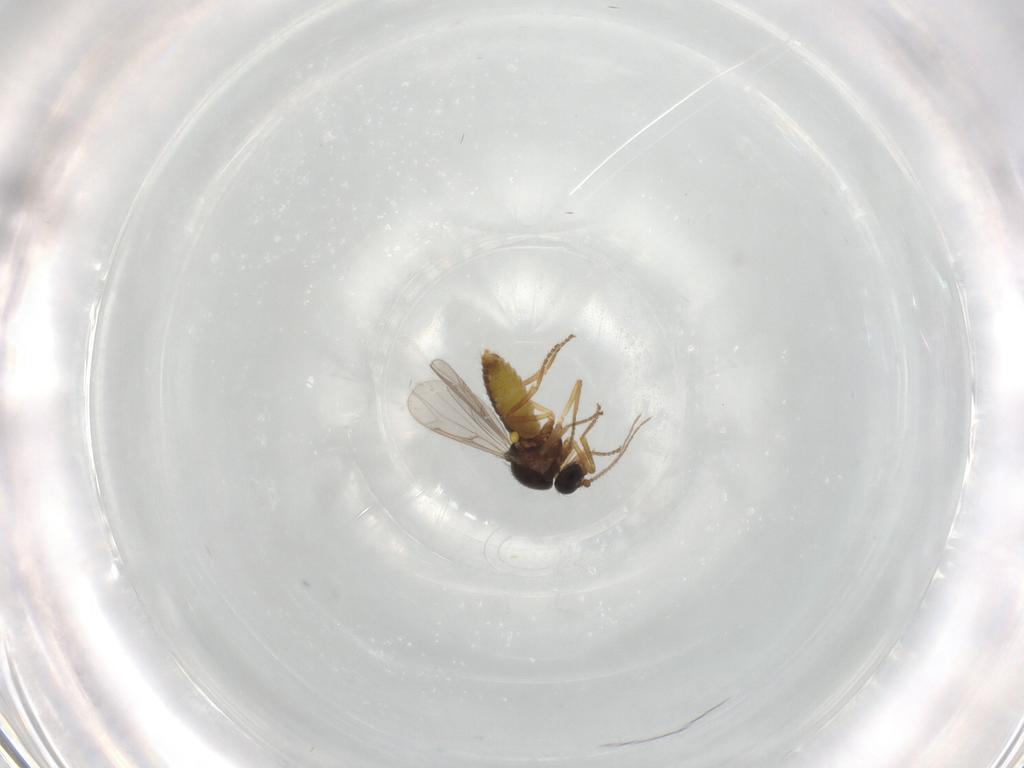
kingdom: Animalia
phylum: Arthropoda
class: Insecta
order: Diptera
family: Ceratopogonidae
